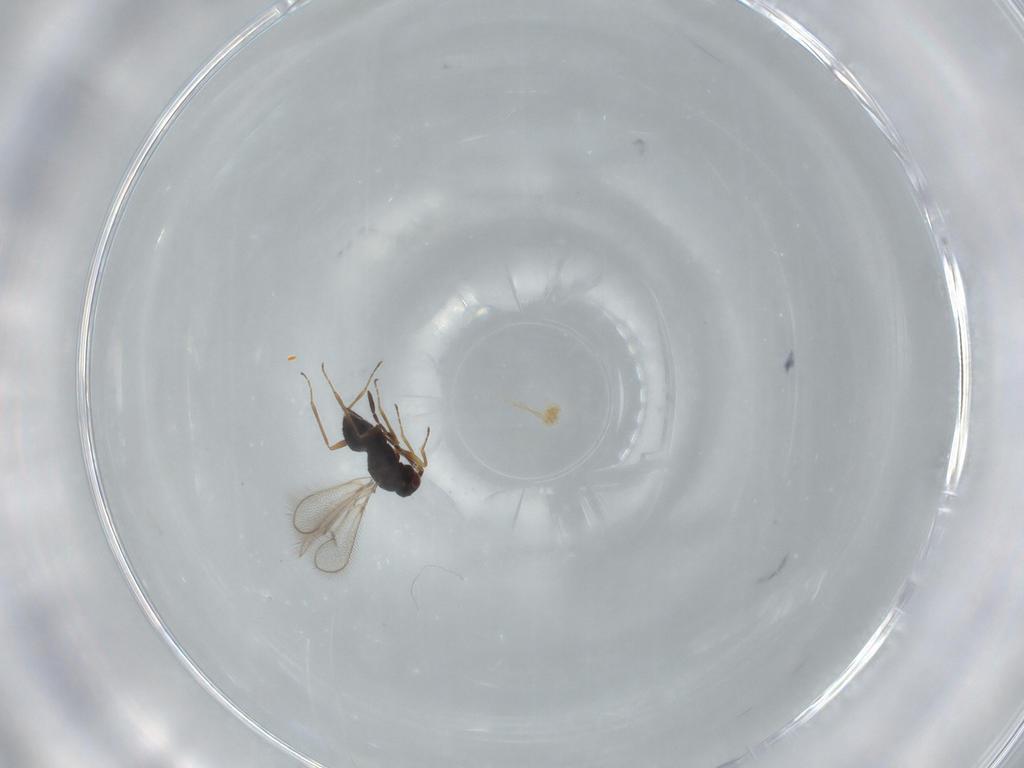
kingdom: Animalia
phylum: Arthropoda
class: Insecta
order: Hymenoptera
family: Mymaridae
